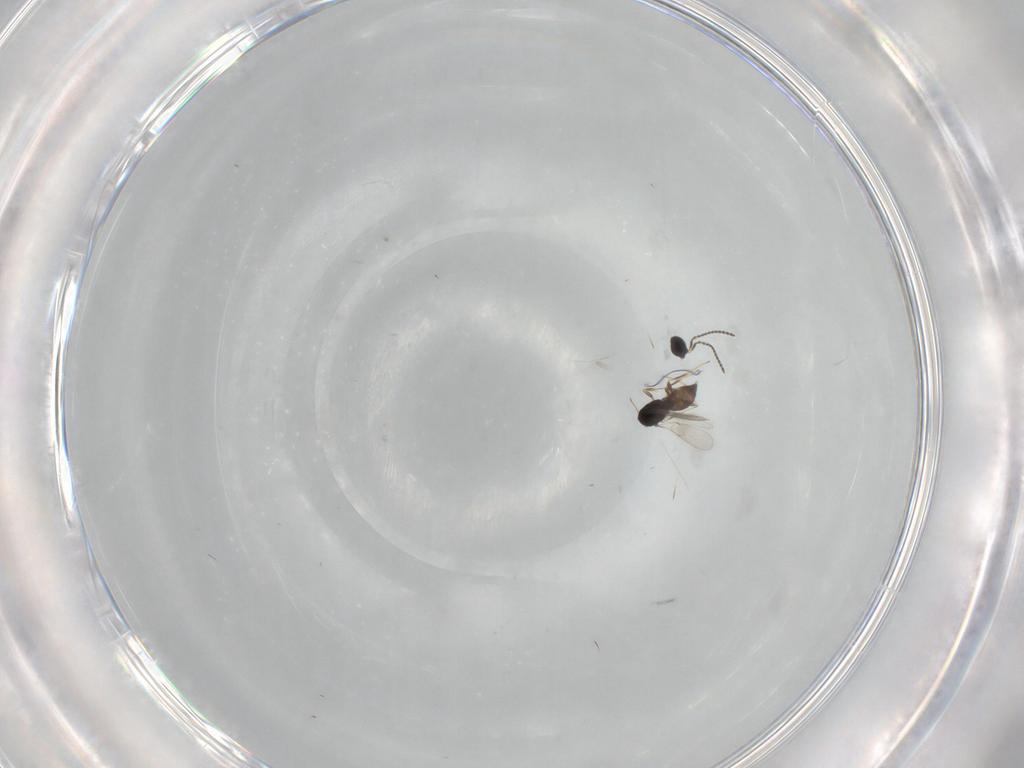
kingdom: Animalia
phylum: Arthropoda
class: Insecta
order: Hymenoptera
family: Scelionidae
